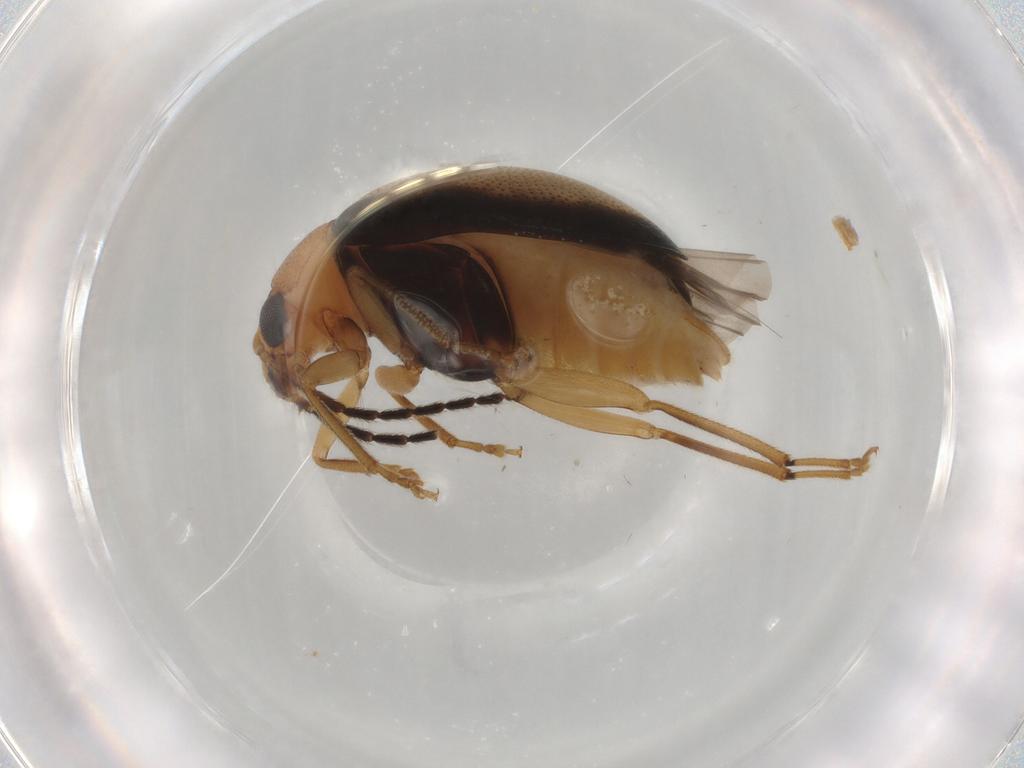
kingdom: Animalia
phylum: Arthropoda
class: Insecta
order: Coleoptera
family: Chrysomelidae
